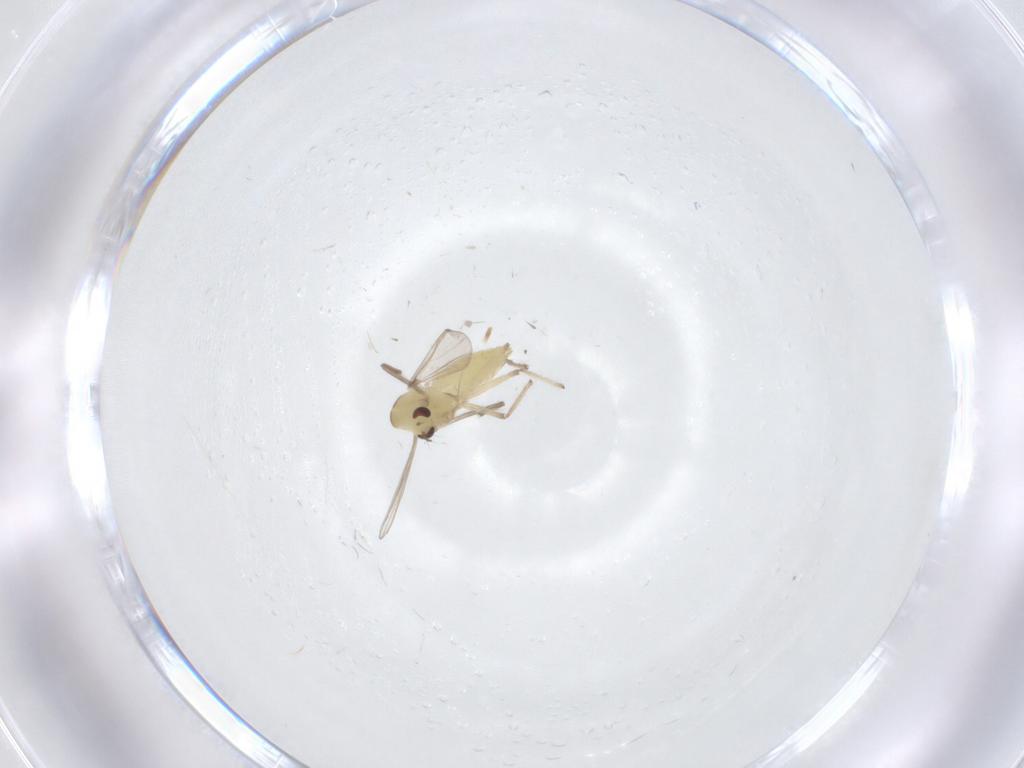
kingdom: Animalia
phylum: Arthropoda
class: Insecta
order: Diptera
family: Chironomidae
